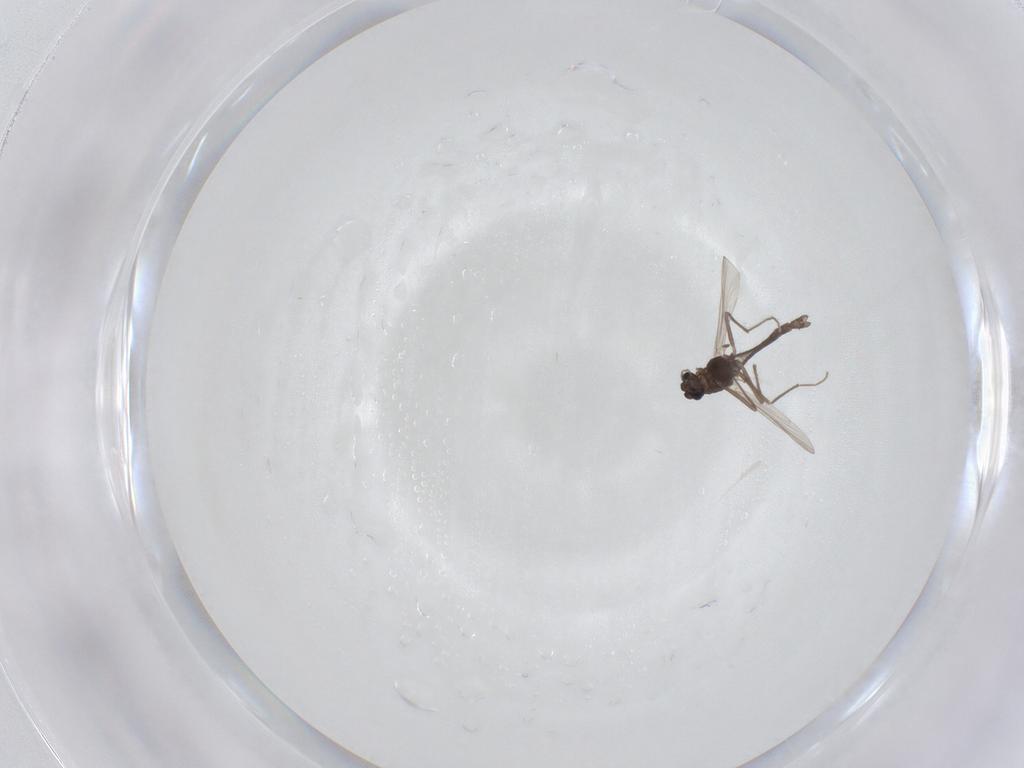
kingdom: Animalia
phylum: Arthropoda
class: Insecta
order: Diptera
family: Chironomidae
